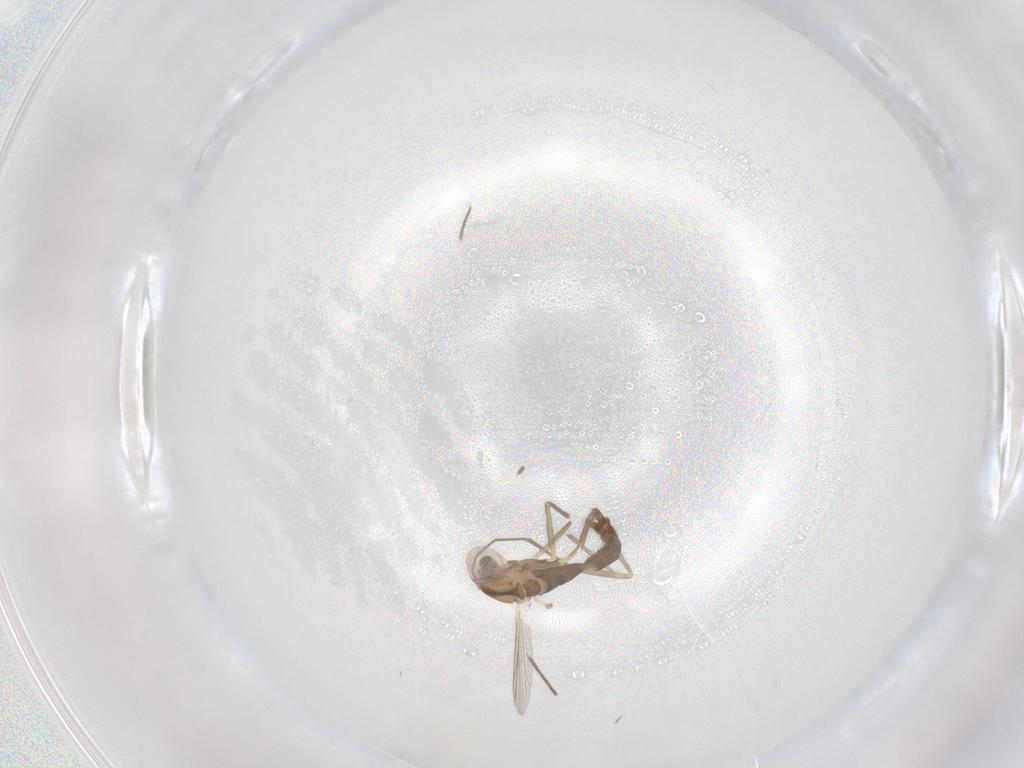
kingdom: Animalia
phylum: Arthropoda
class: Insecta
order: Diptera
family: Chironomidae
